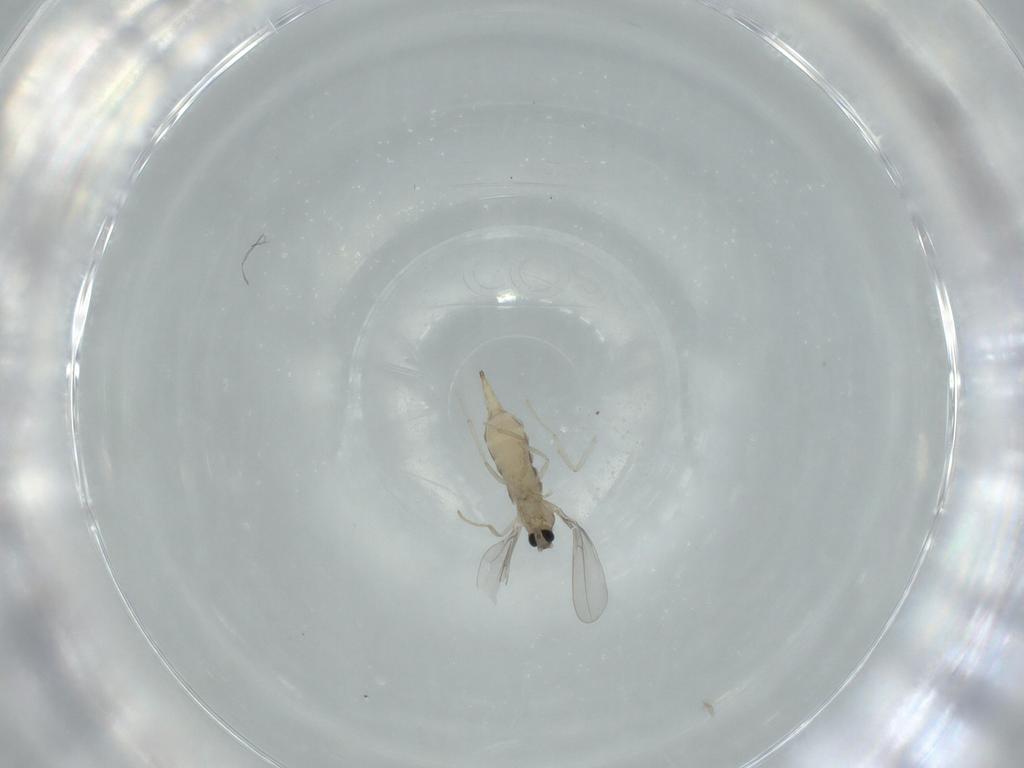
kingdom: Animalia
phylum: Arthropoda
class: Insecta
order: Diptera
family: Cecidomyiidae
